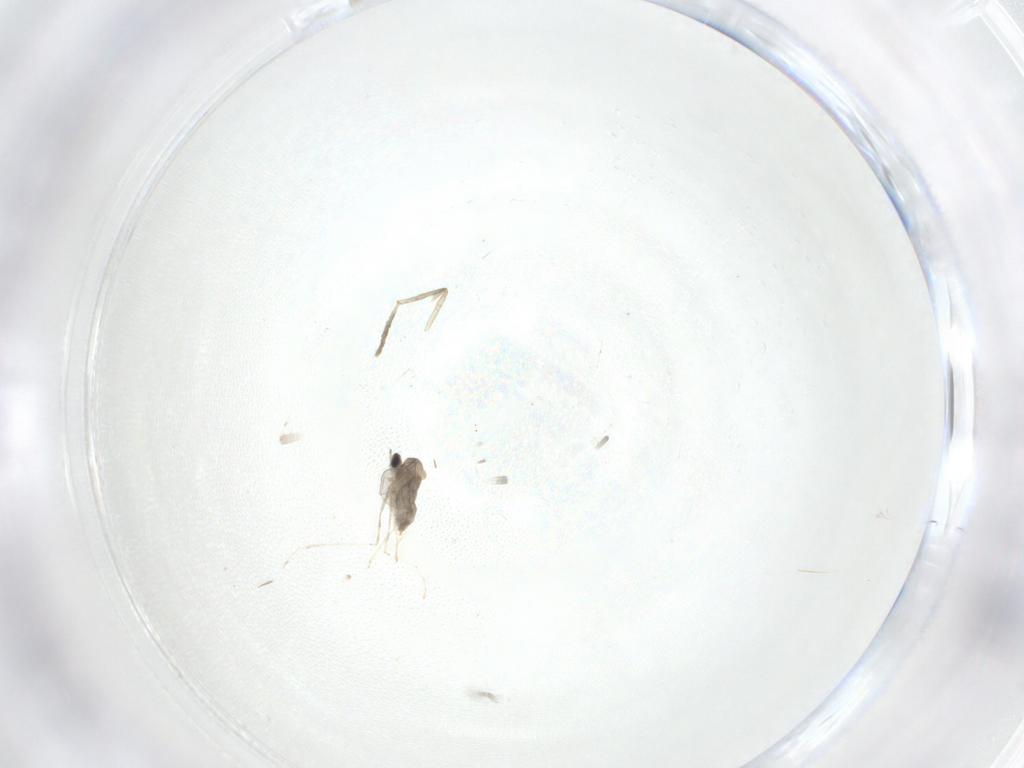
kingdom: Animalia
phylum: Arthropoda
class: Insecta
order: Diptera
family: Psychodidae
